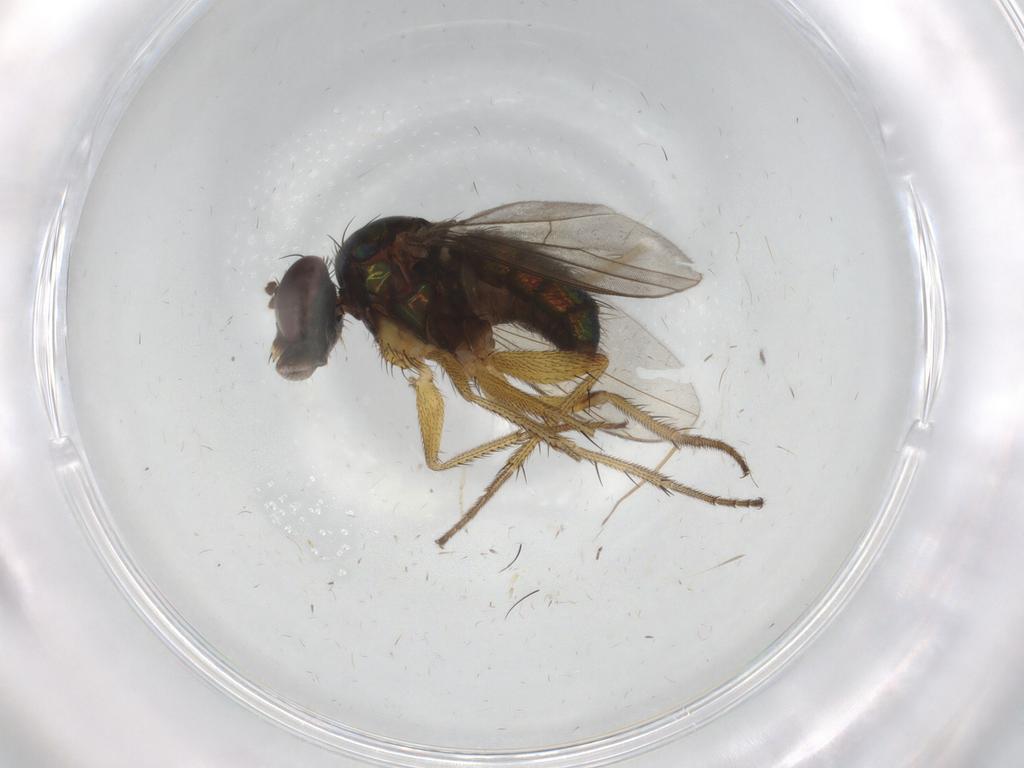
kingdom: Animalia
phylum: Arthropoda
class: Insecta
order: Diptera
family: Dolichopodidae
